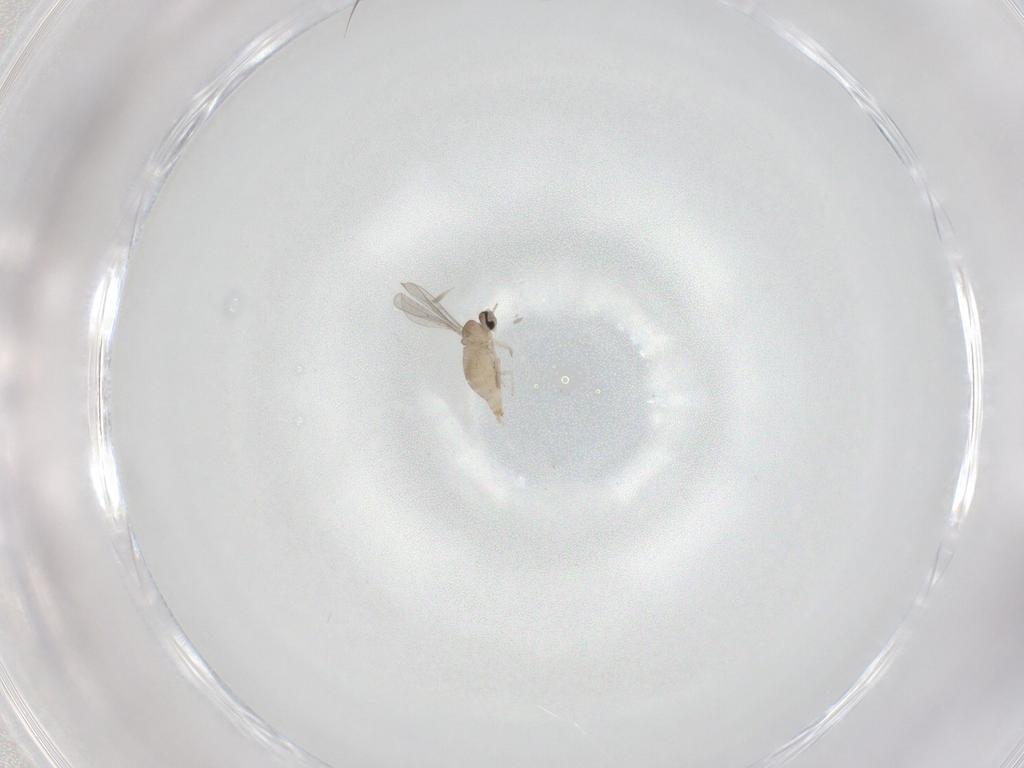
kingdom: Animalia
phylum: Arthropoda
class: Insecta
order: Diptera
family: Cecidomyiidae
